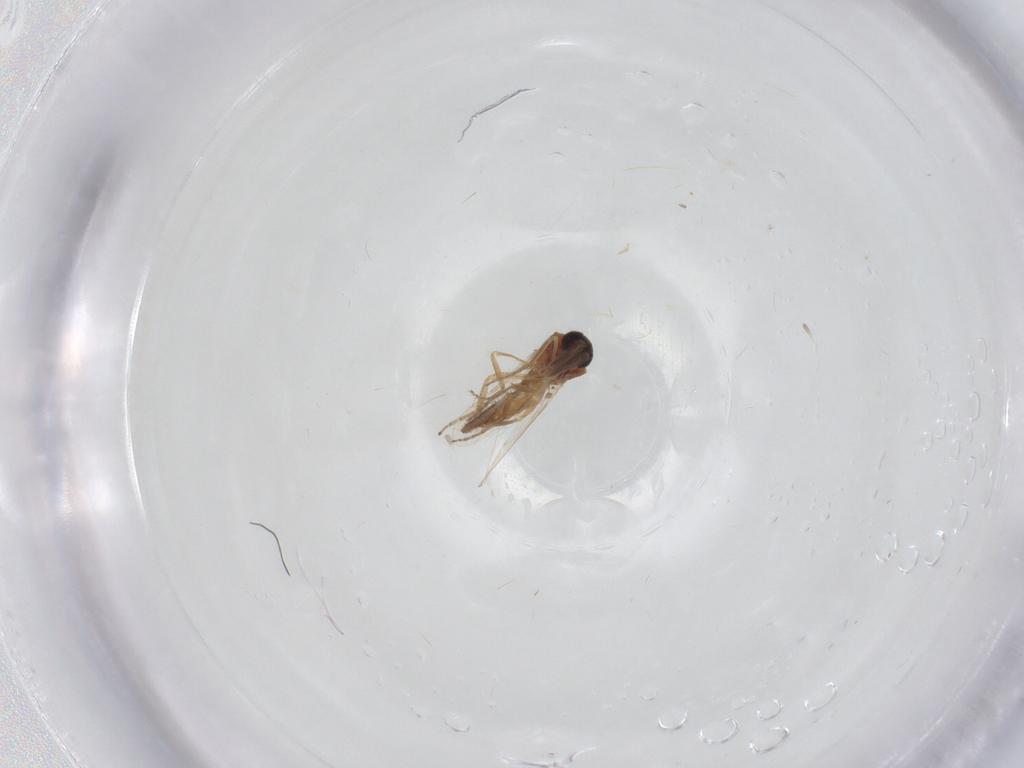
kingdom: Animalia
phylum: Arthropoda
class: Insecta
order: Diptera
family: Ceratopogonidae
